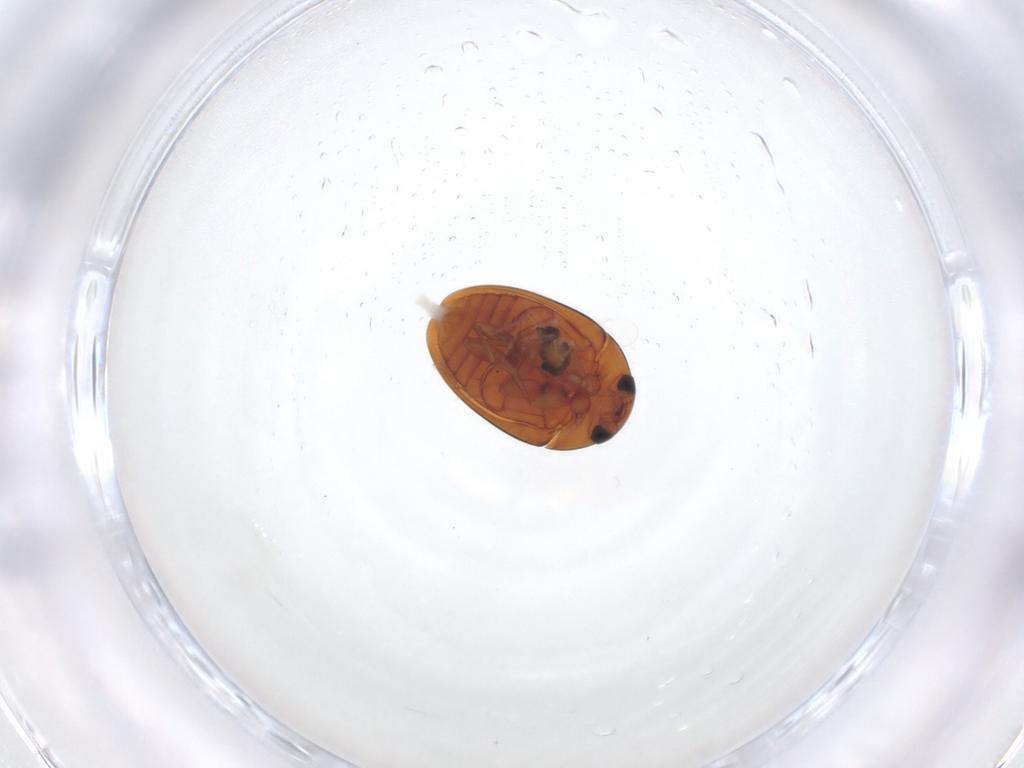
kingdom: Animalia
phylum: Arthropoda
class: Insecta
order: Coleoptera
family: Phalacridae
